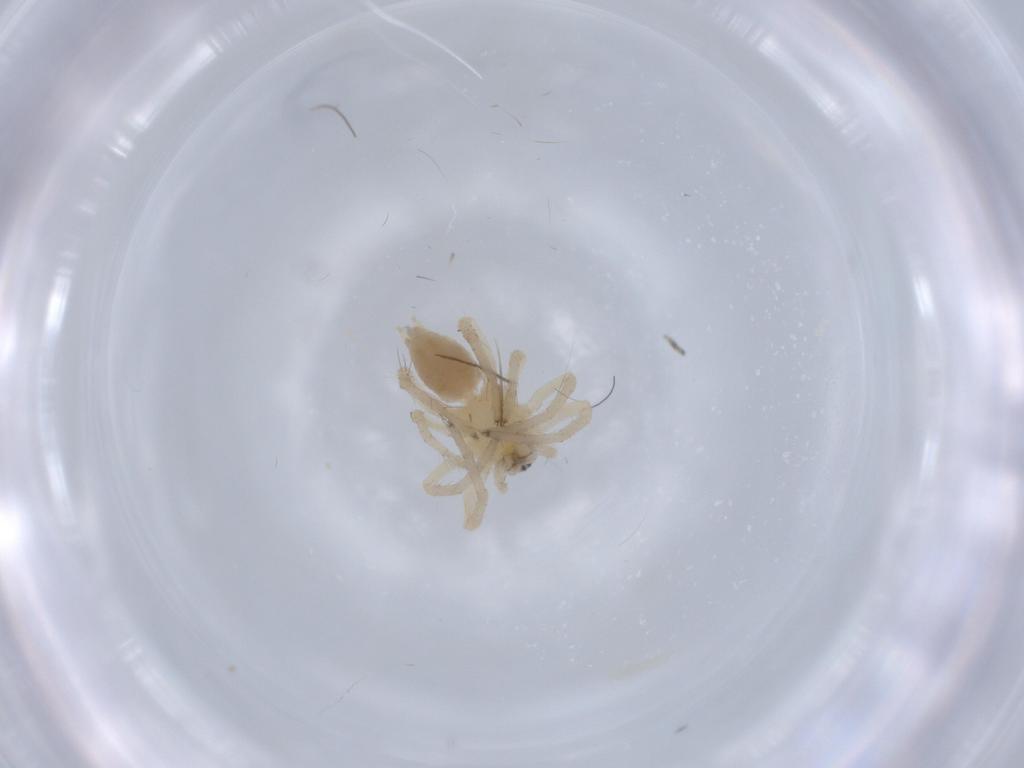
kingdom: Animalia
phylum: Arthropoda
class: Arachnida
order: Araneae
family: Anyphaenidae
